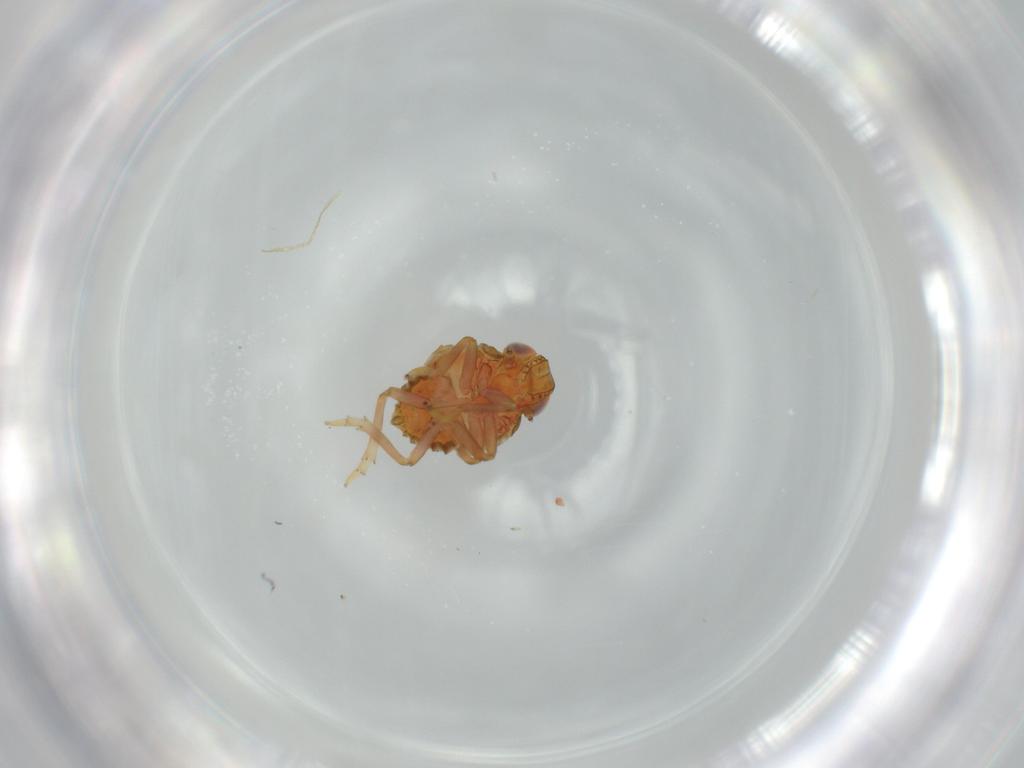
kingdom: Animalia
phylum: Arthropoda
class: Insecta
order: Hemiptera
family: Issidae
